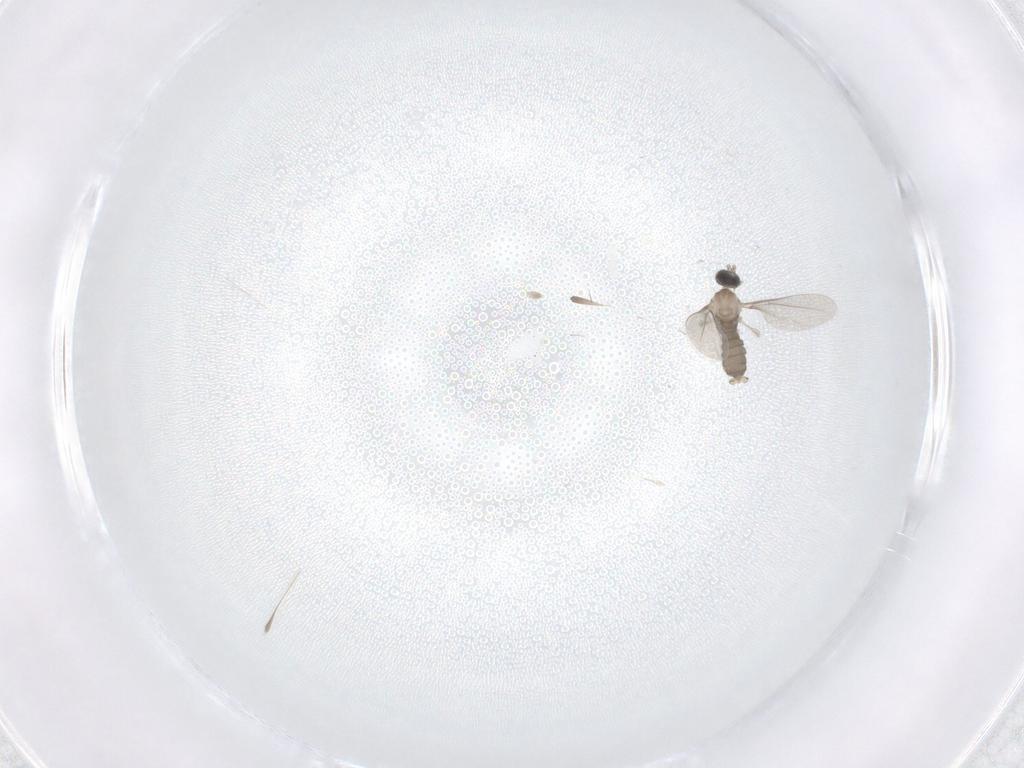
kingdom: Animalia
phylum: Arthropoda
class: Insecta
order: Diptera
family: Cecidomyiidae
